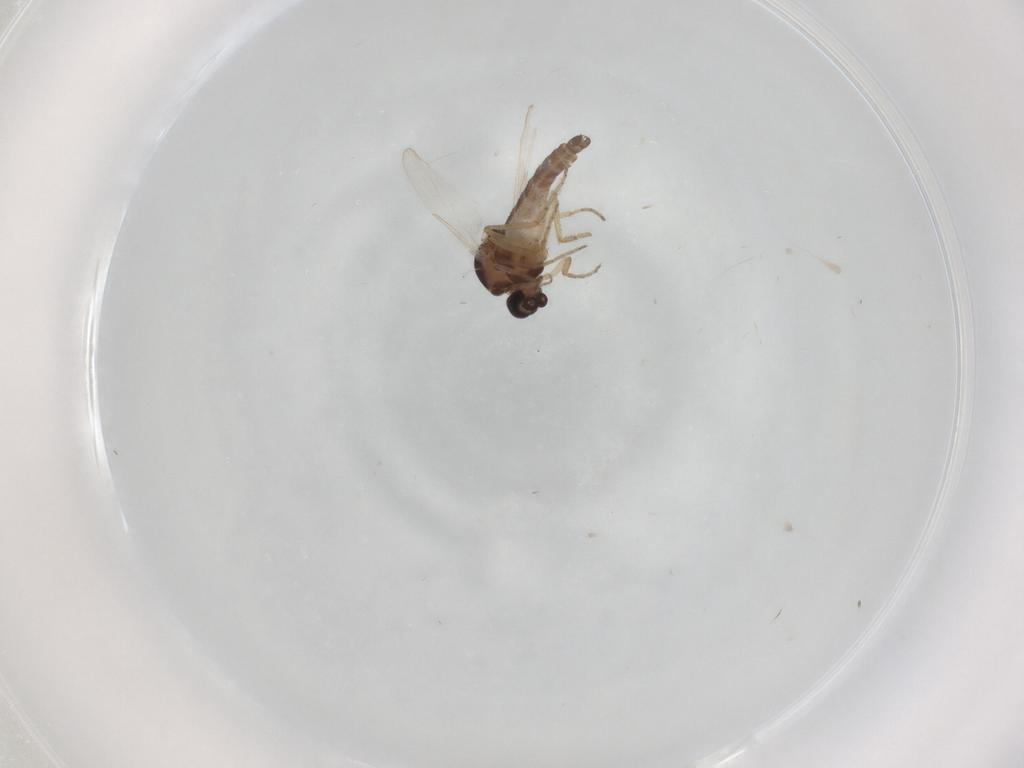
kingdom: Animalia
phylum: Arthropoda
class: Insecta
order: Diptera
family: Ceratopogonidae
